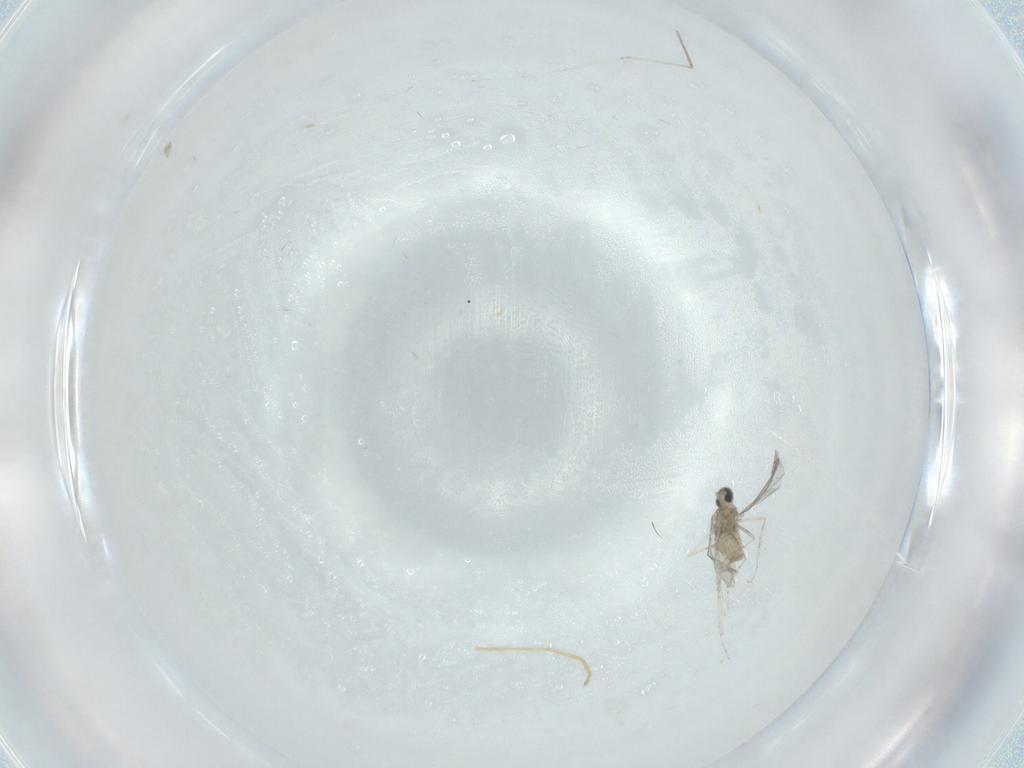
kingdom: Animalia
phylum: Arthropoda
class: Insecta
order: Diptera
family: Cecidomyiidae
